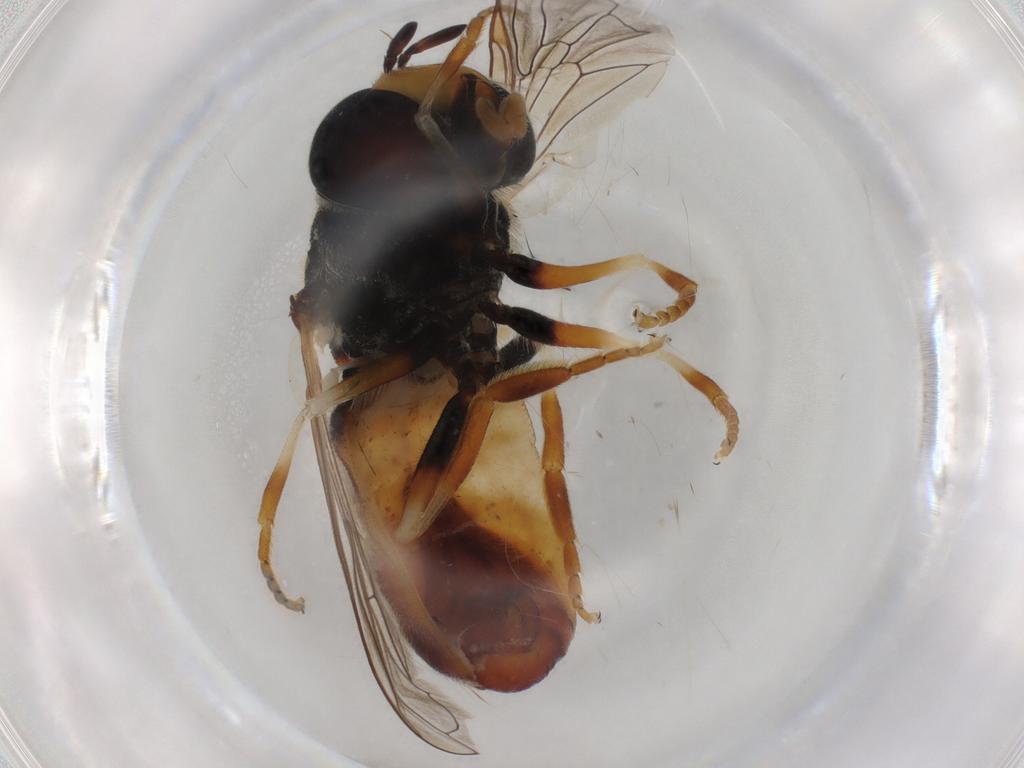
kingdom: Animalia
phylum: Arthropoda
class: Insecta
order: Diptera
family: Syrphidae
